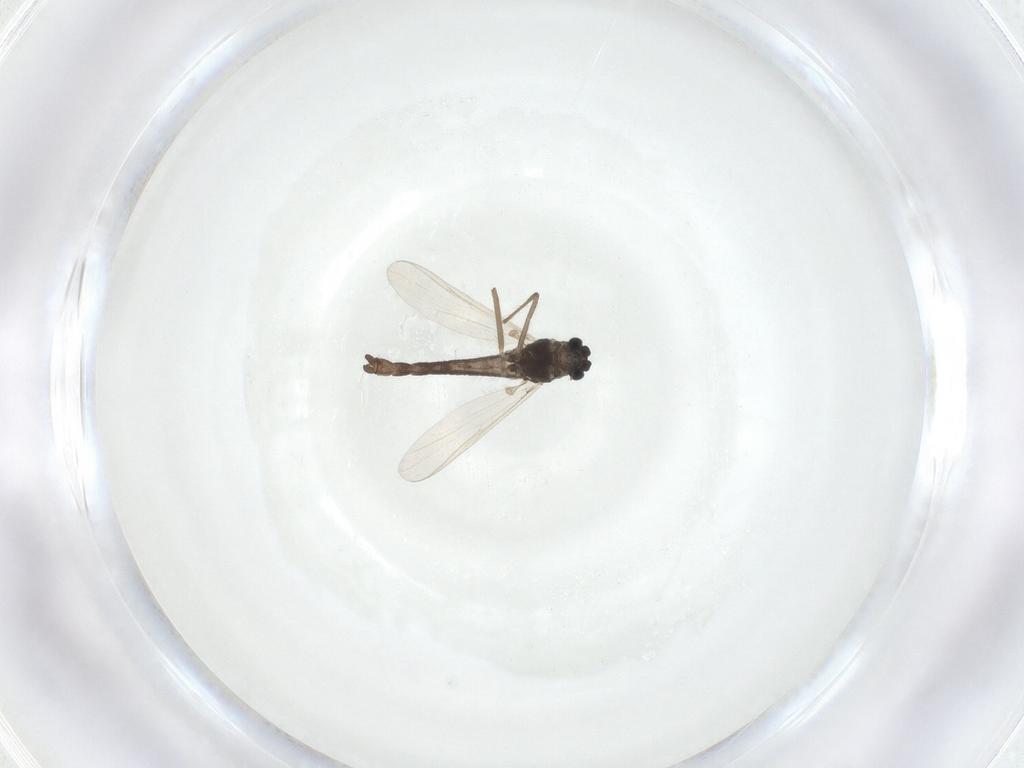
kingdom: Animalia
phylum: Arthropoda
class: Insecta
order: Diptera
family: Chironomidae
